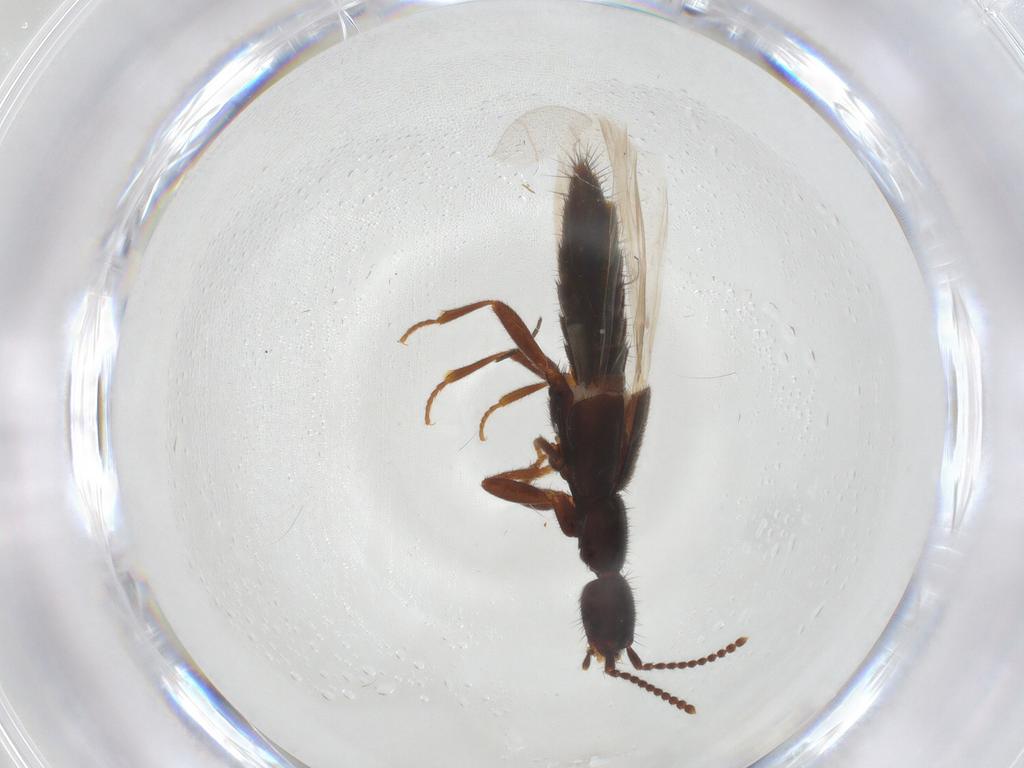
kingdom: Animalia
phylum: Arthropoda
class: Insecta
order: Coleoptera
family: Staphylinidae
